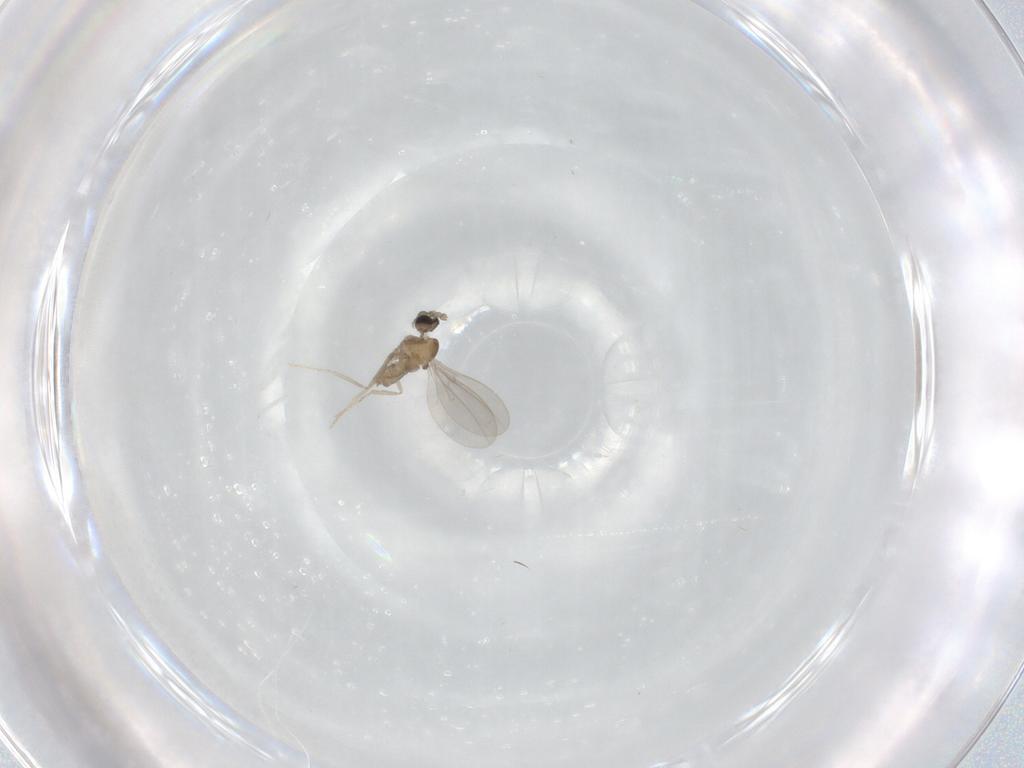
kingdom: Animalia
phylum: Arthropoda
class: Insecta
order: Diptera
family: Cecidomyiidae
